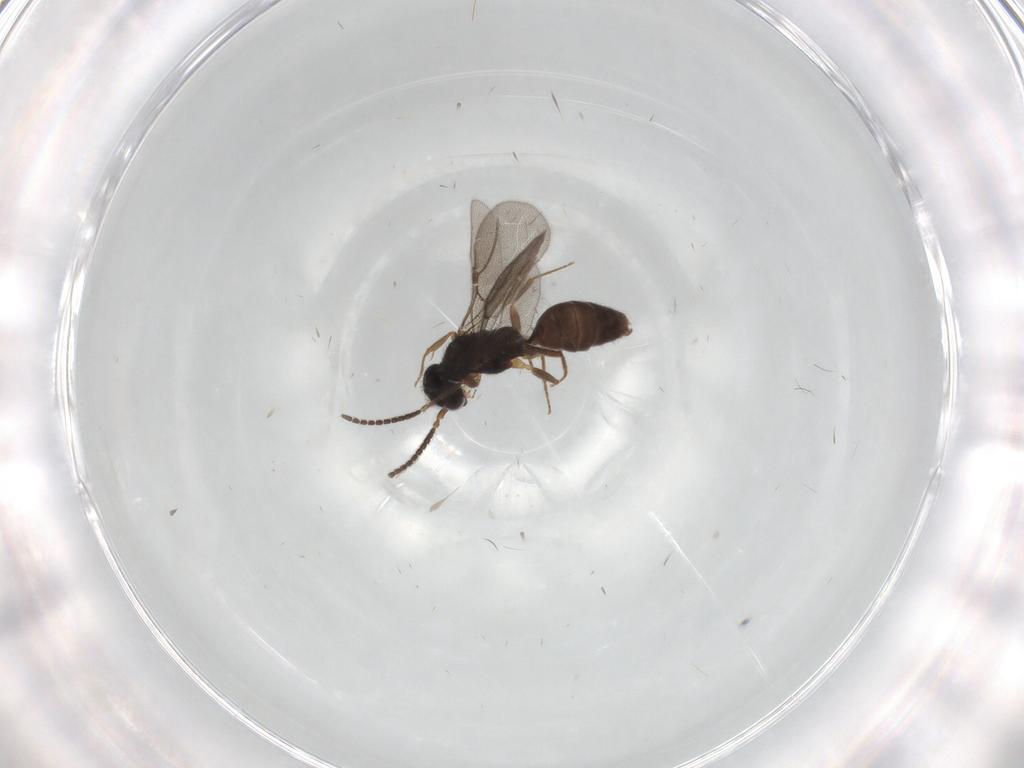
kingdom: Animalia
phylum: Arthropoda
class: Insecta
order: Hymenoptera
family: Bethylidae
